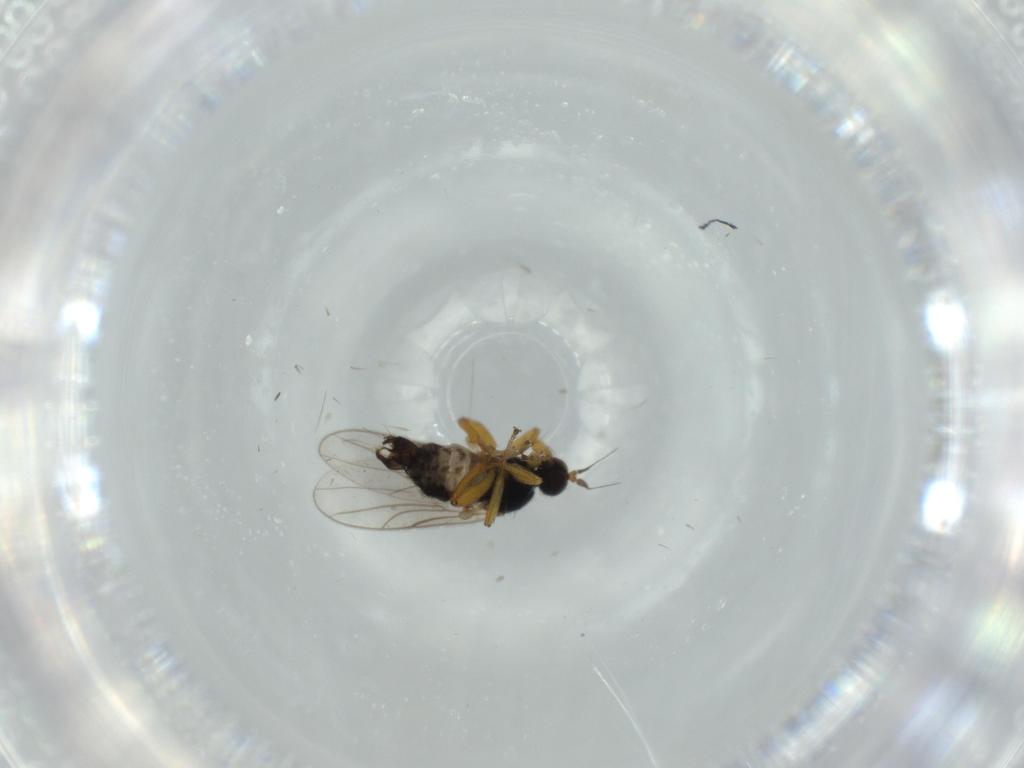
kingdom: Animalia
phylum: Arthropoda
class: Insecta
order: Diptera
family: Hybotidae
